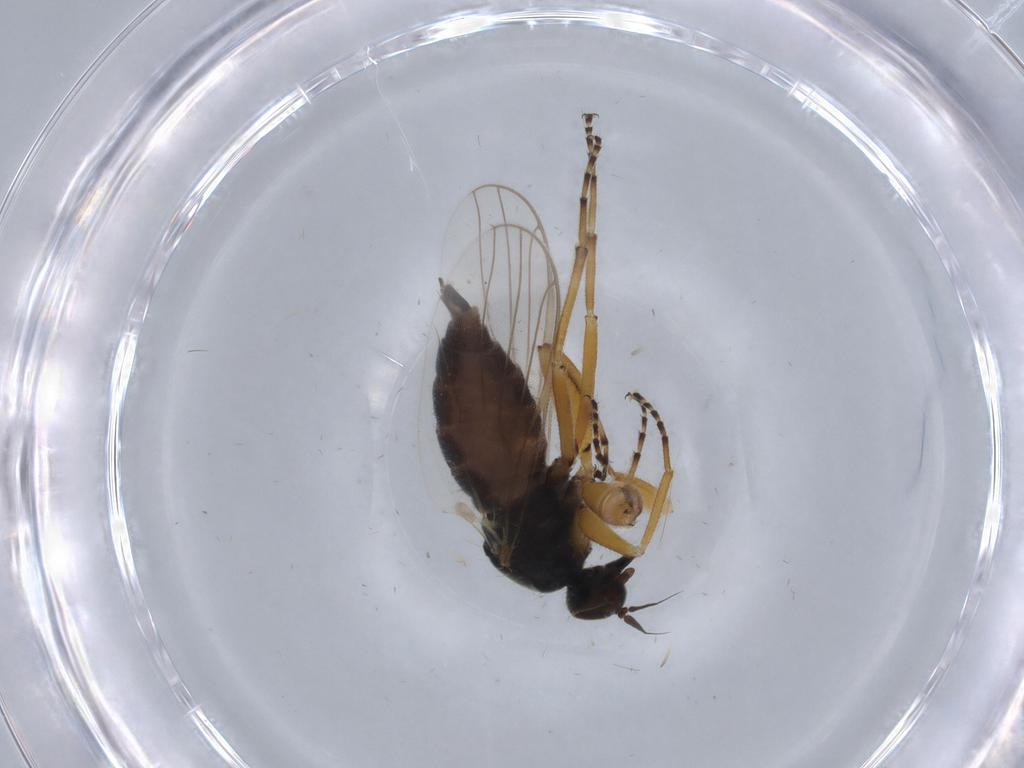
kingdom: Animalia
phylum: Arthropoda
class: Insecta
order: Diptera
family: Hybotidae
